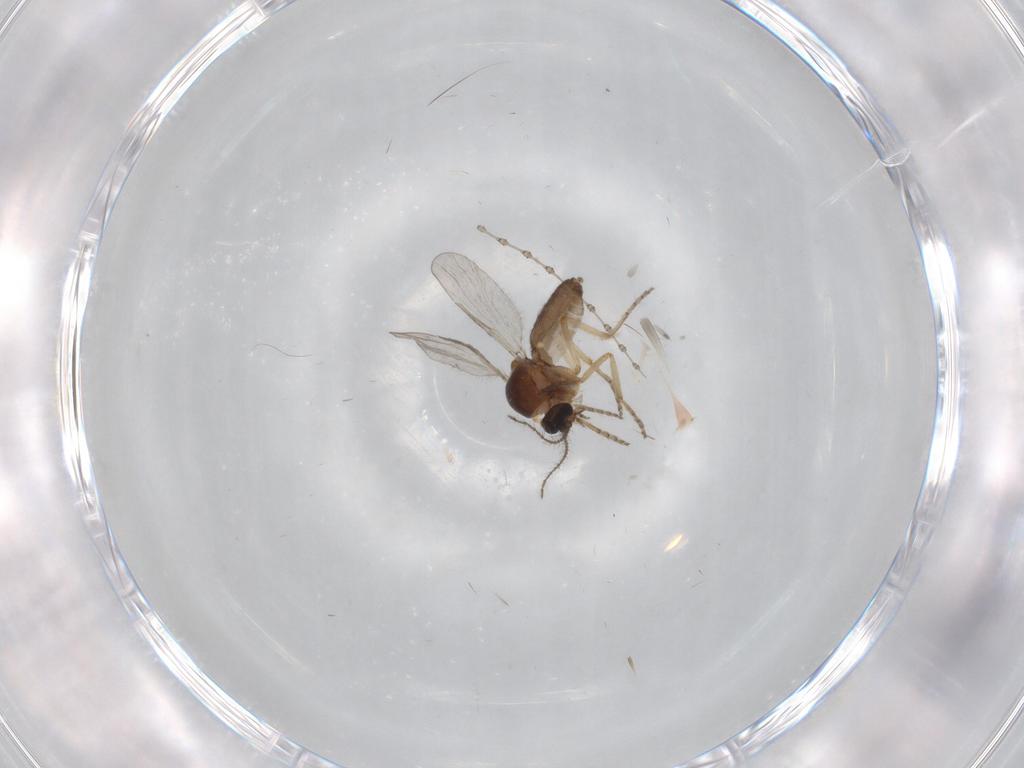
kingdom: Animalia
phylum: Arthropoda
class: Insecta
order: Diptera
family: Ceratopogonidae
